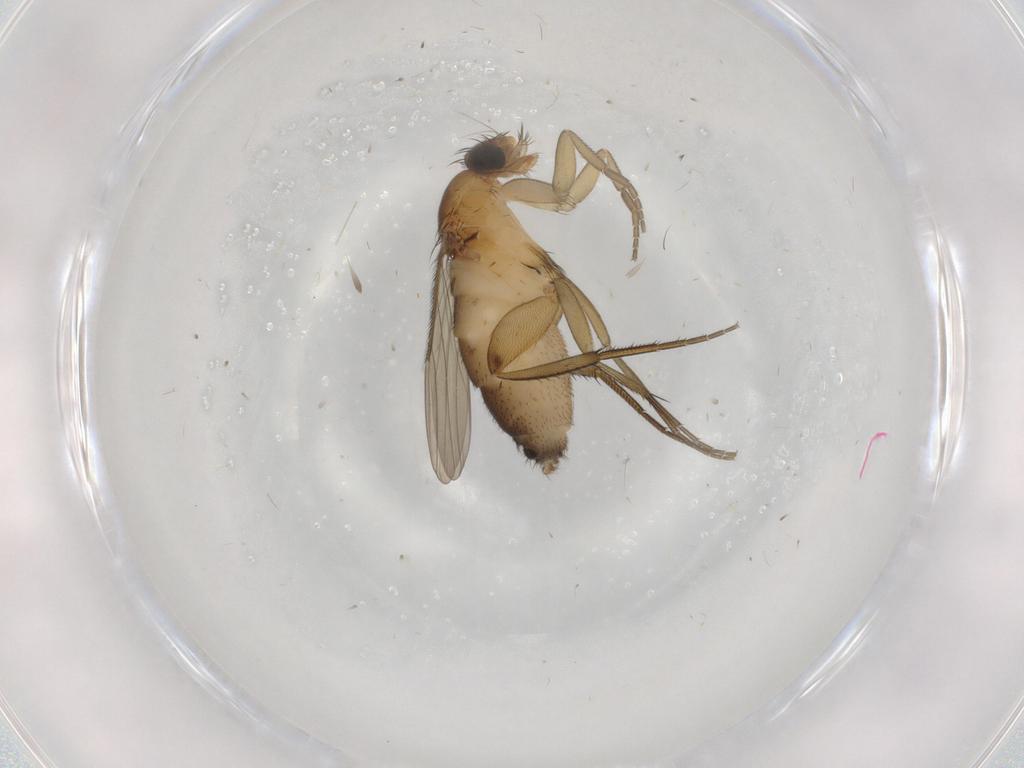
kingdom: Animalia
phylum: Arthropoda
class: Insecta
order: Diptera
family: Phoridae
